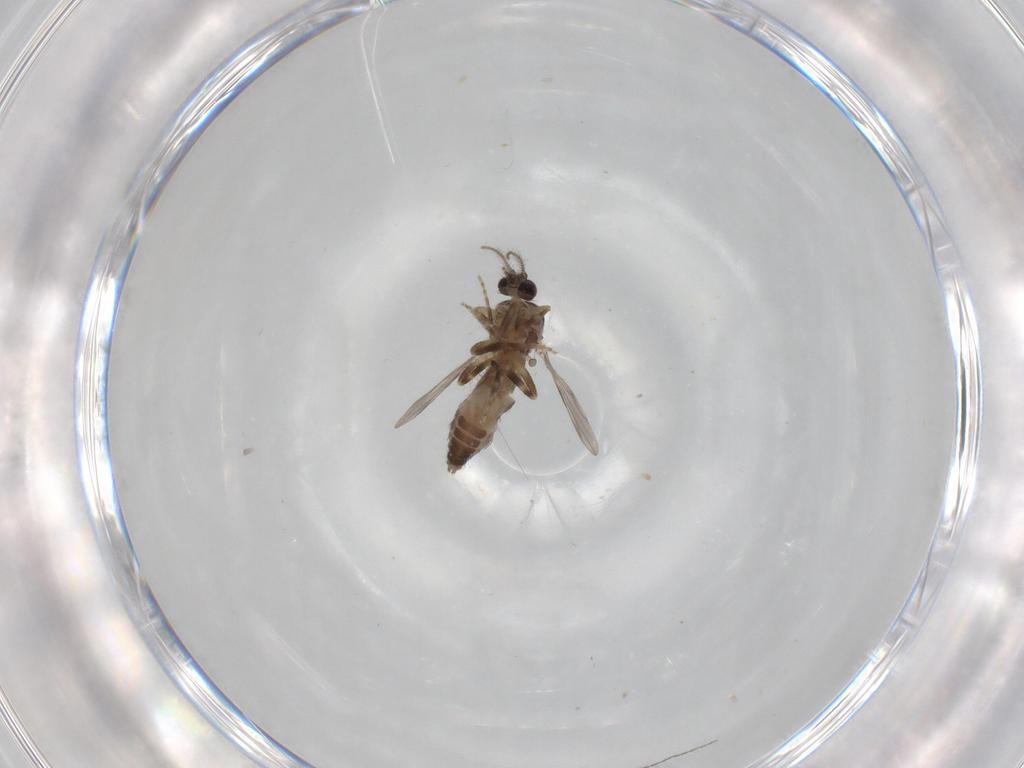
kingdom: Animalia
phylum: Arthropoda
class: Insecta
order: Diptera
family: Ceratopogonidae
